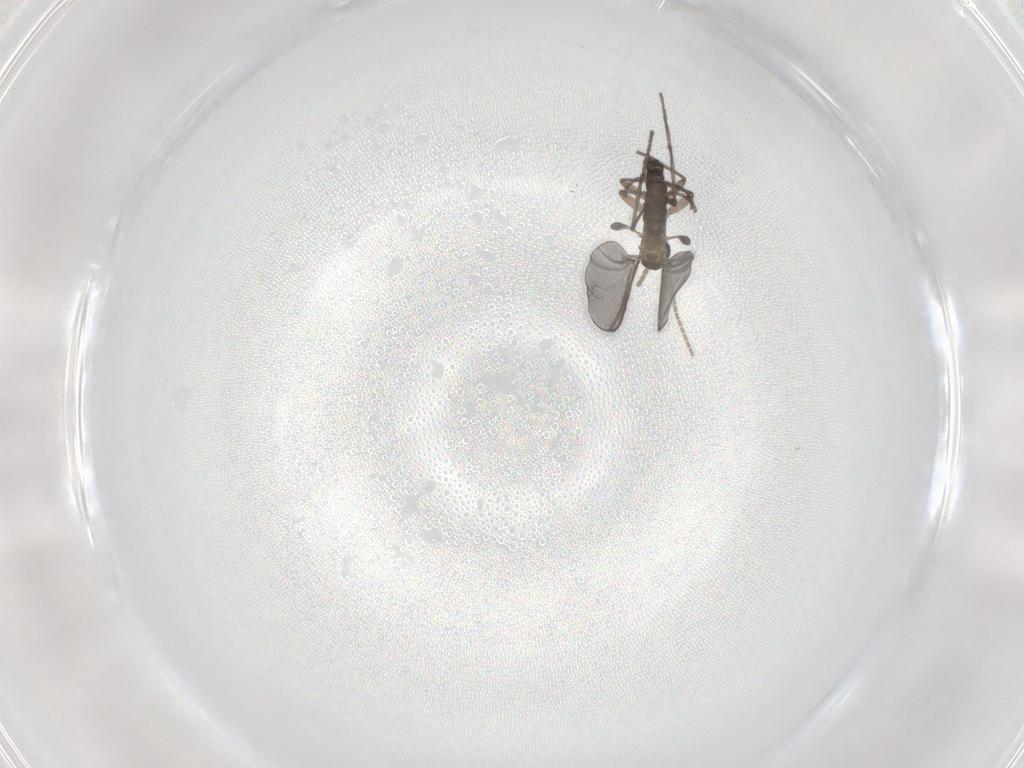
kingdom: Animalia
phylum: Arthropoda
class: Insecta
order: Diptera
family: Sciaridae
